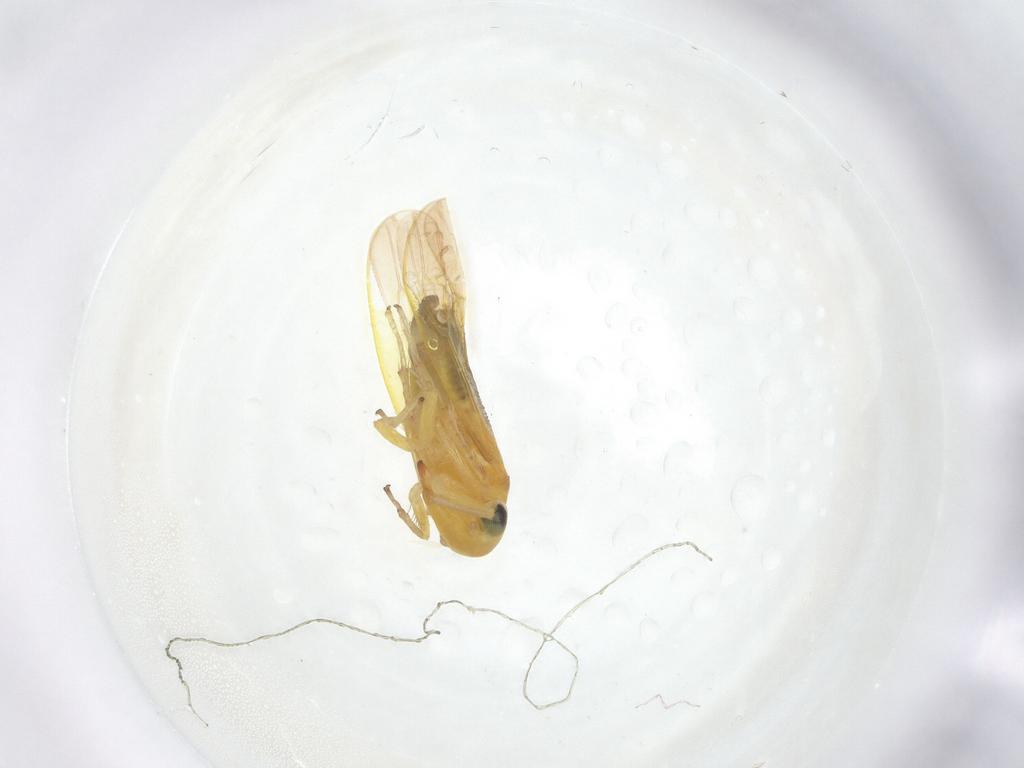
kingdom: Animalia
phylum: Arthropoda
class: Insecta
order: Hemiptera
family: Cicadellidae
